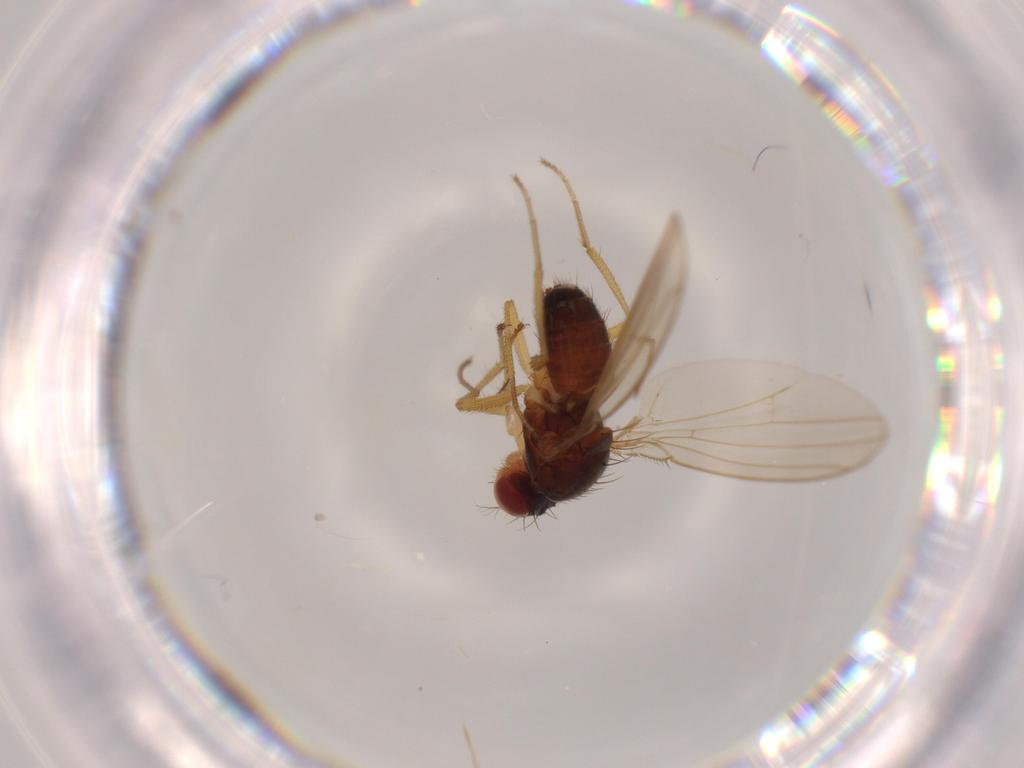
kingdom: Animalia
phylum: Arthropoda
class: Insecta
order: Diptera
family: Drosophilidae
